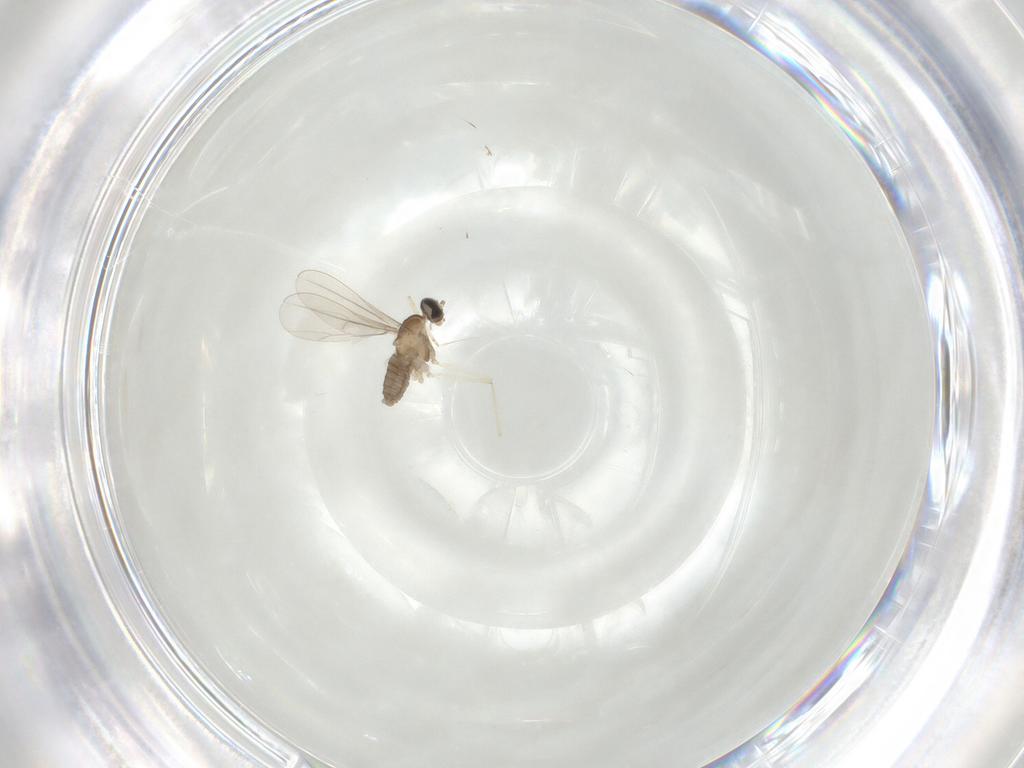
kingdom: Animalia
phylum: Arthropoda
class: Insecta
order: Diptera
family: Cecidomyiidae
